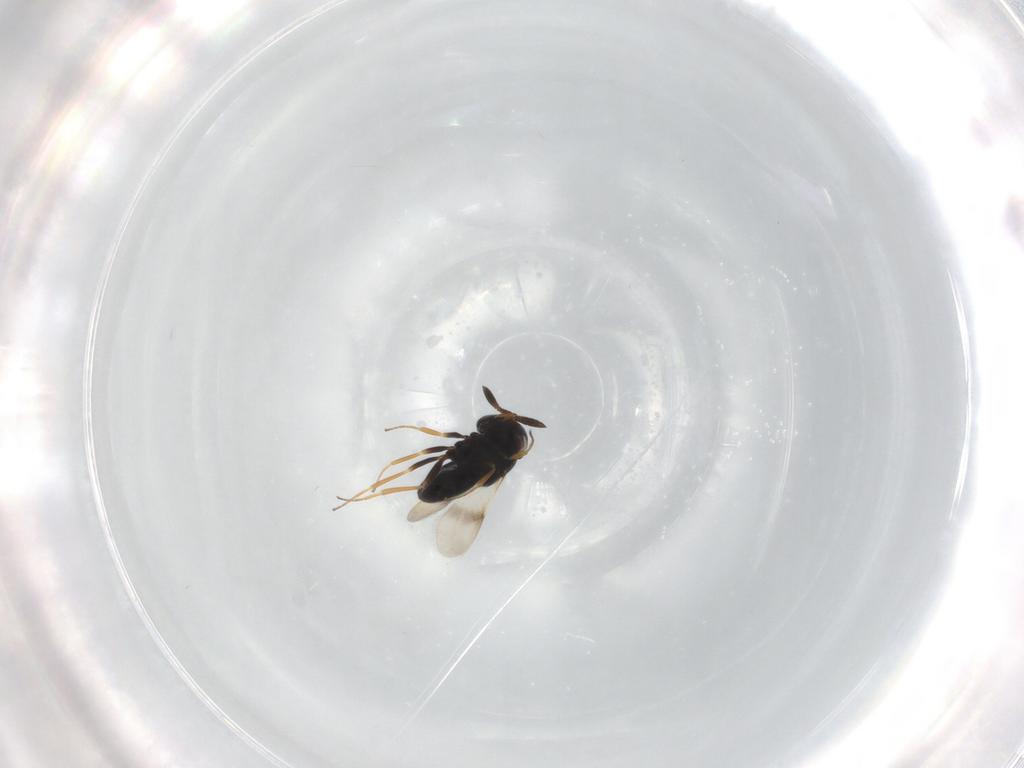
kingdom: Animalia
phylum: Arthropoda
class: Insecta
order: Hymenoptera
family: Scelionidae
